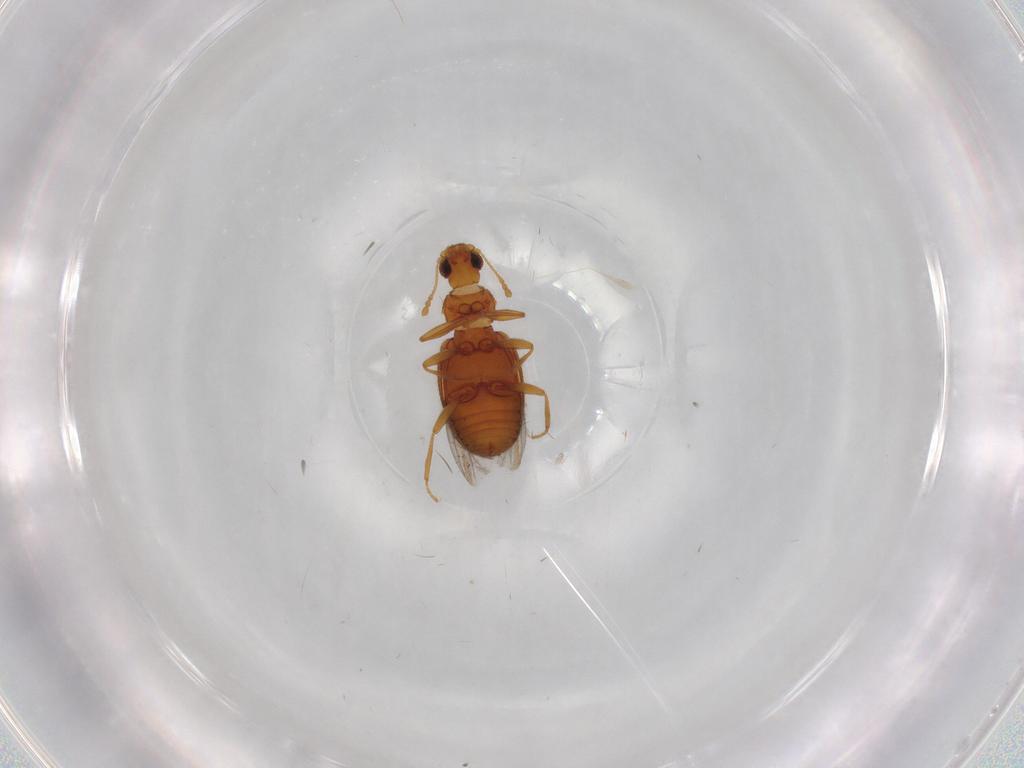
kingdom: Animalia
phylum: Arthropoda
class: Insecta
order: Coleoptera
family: Latridiidae
